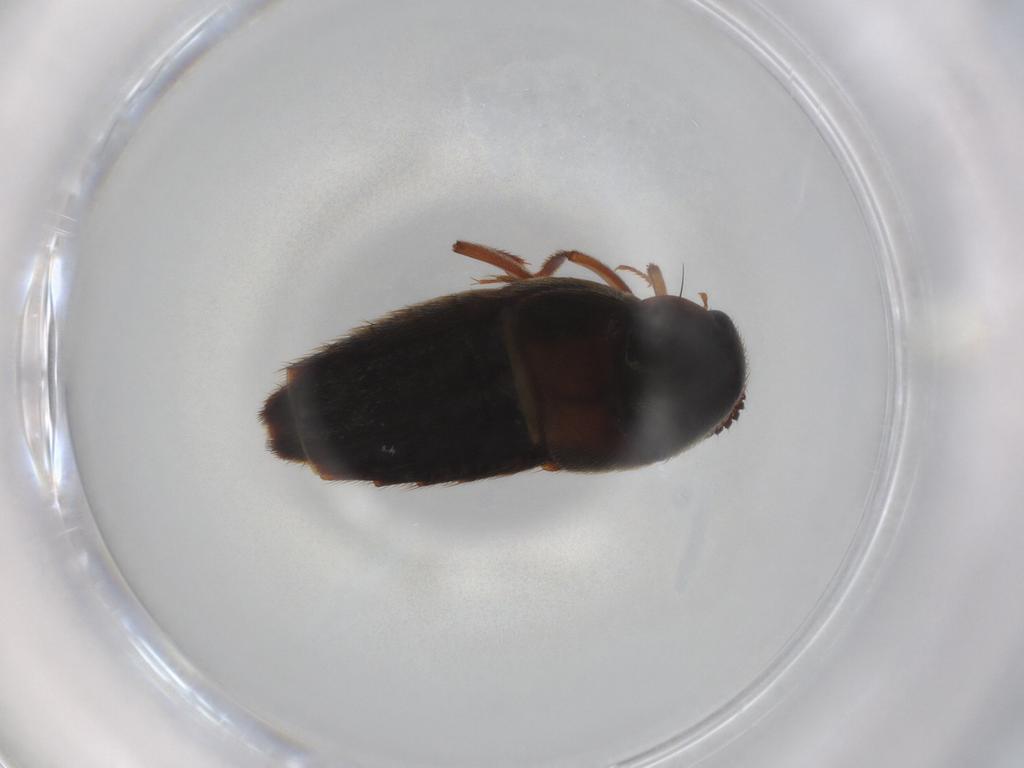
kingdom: Animalia
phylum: Arthropoda
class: Insecta
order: Coleoptera
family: Staphylinidae
